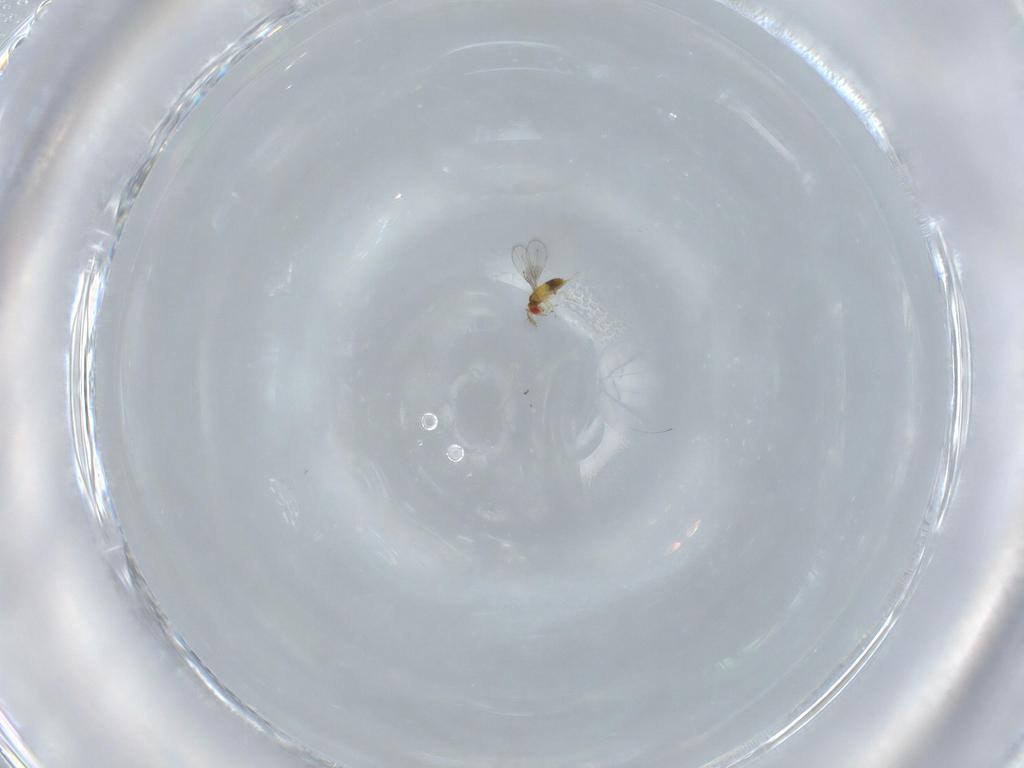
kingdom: Animalia
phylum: Arthropoda
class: Insecta
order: Hymenoptera
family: Trichogrammatidae
